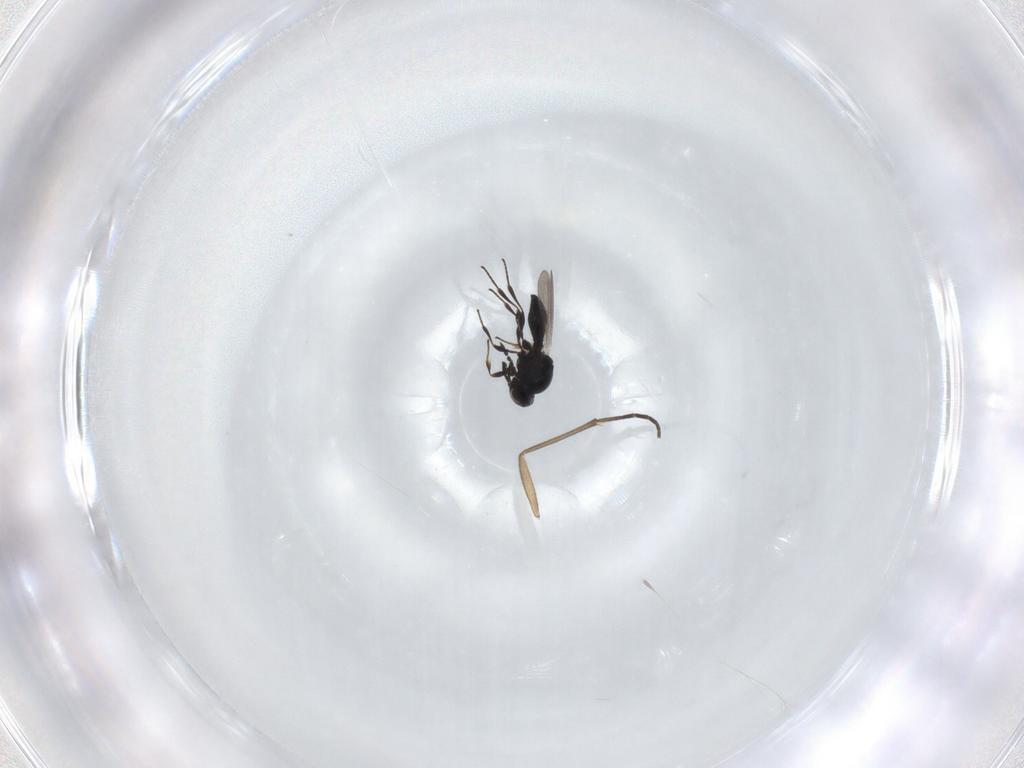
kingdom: Animalia
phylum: Arthropoda
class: Insecta
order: Hymenoptera
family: Platygastridae
